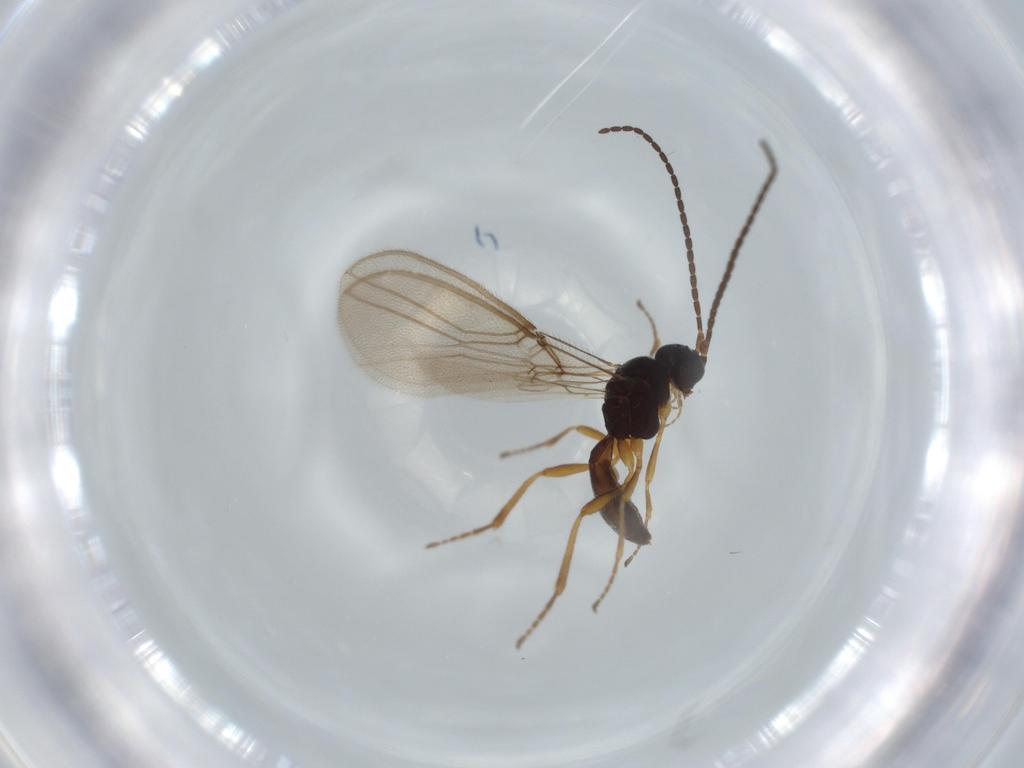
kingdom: Animalia
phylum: Arthropoda
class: Insecta
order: Hymenoptera
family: Braconidae
